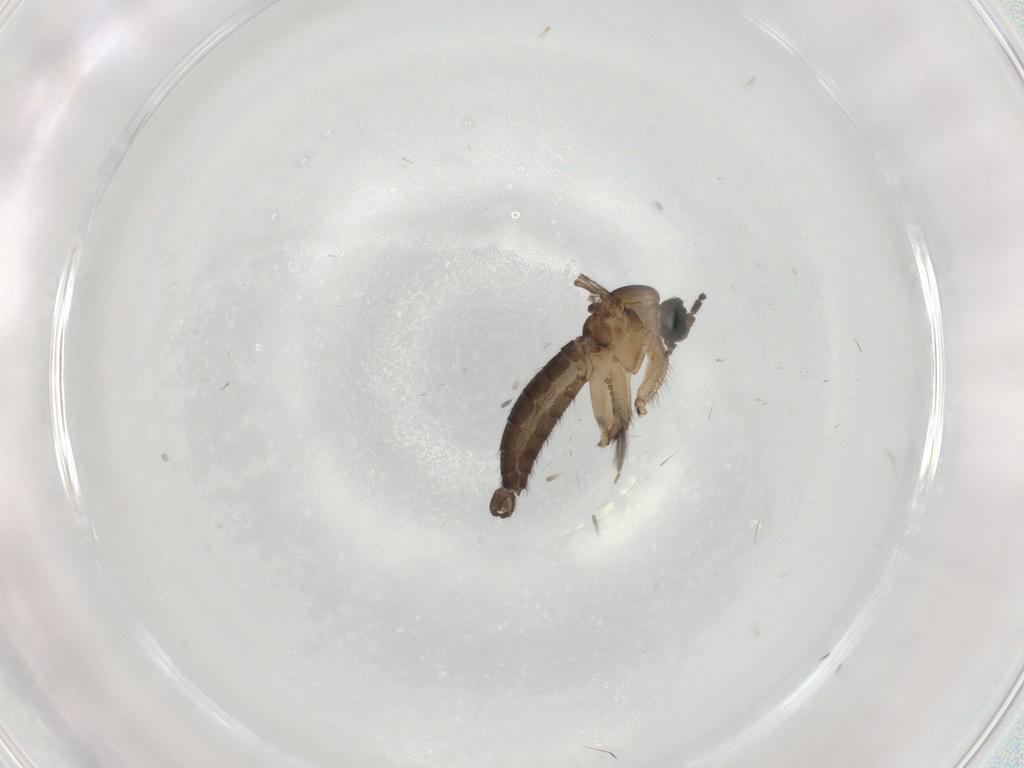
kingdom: Animalia
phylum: Arthropoda
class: Insecta
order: Diptera
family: Ceratopogonidae
